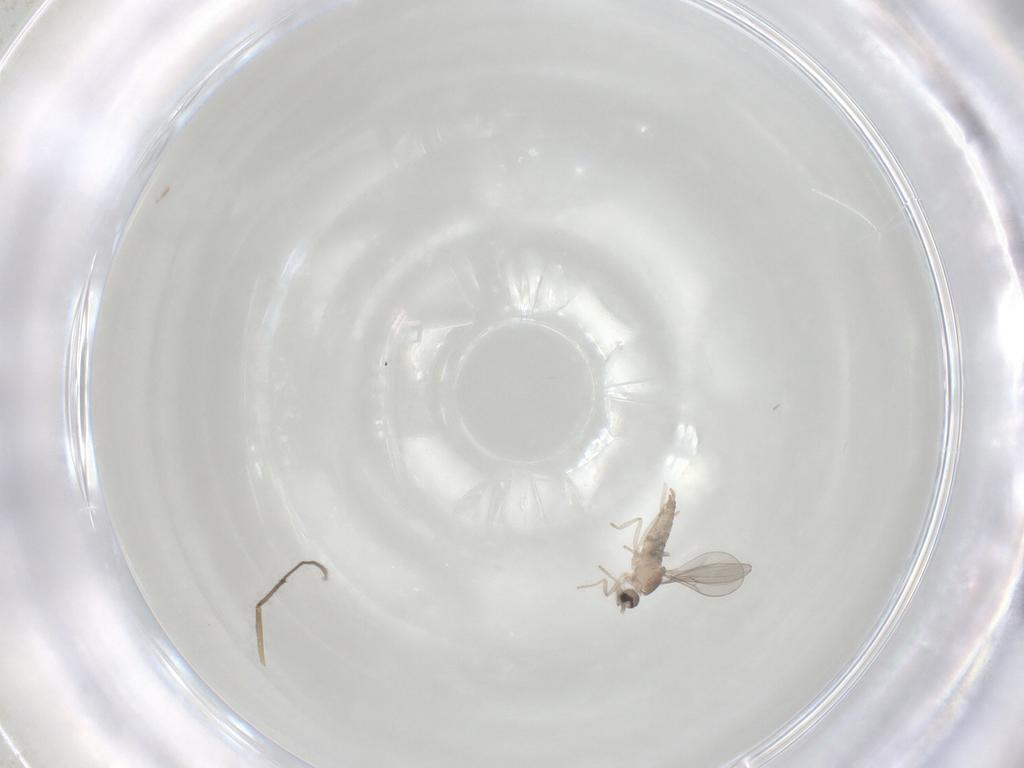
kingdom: Animalia
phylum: Arthropoda
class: Insecta
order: Diptera
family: Cecidomyiidae
